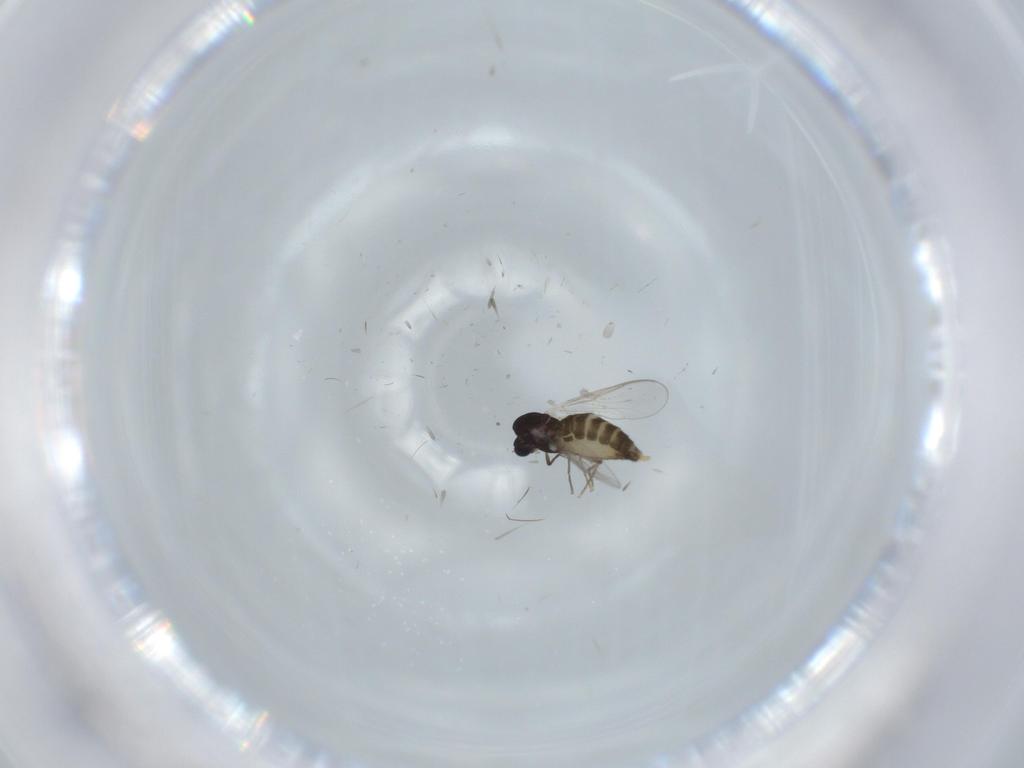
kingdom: Animalia
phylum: Arthropoda
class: Insecta
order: Diptera
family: Chironomidae
